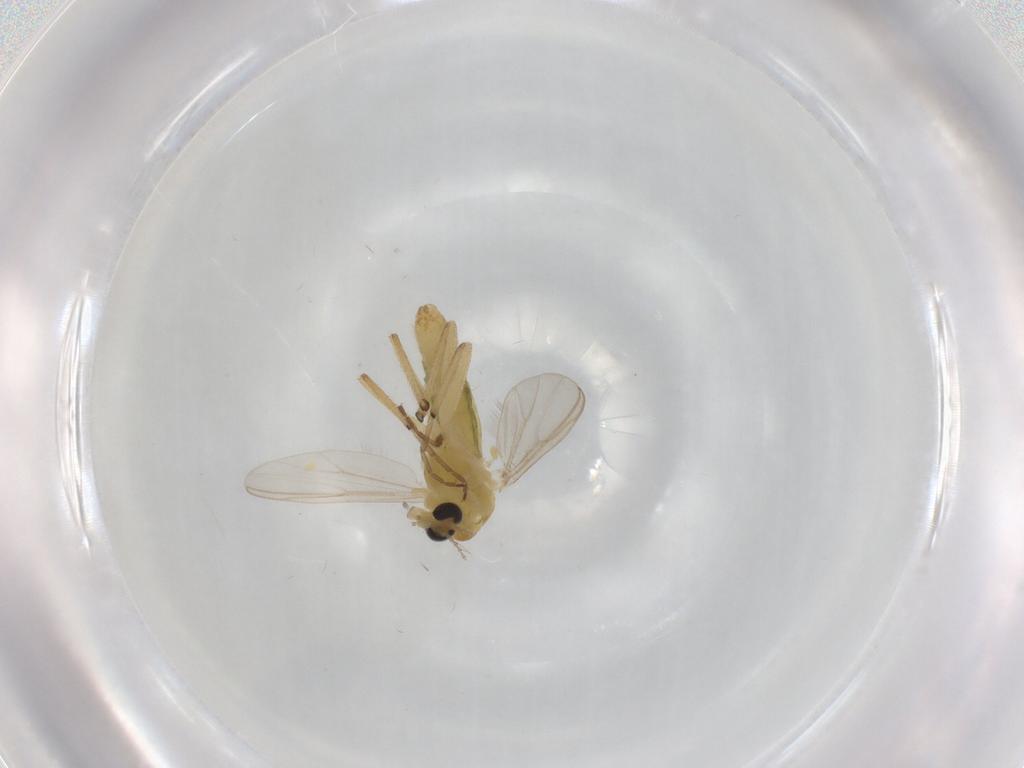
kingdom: Animalia
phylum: Arthropoda
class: Insecta
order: Diptera
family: Chironomidae
